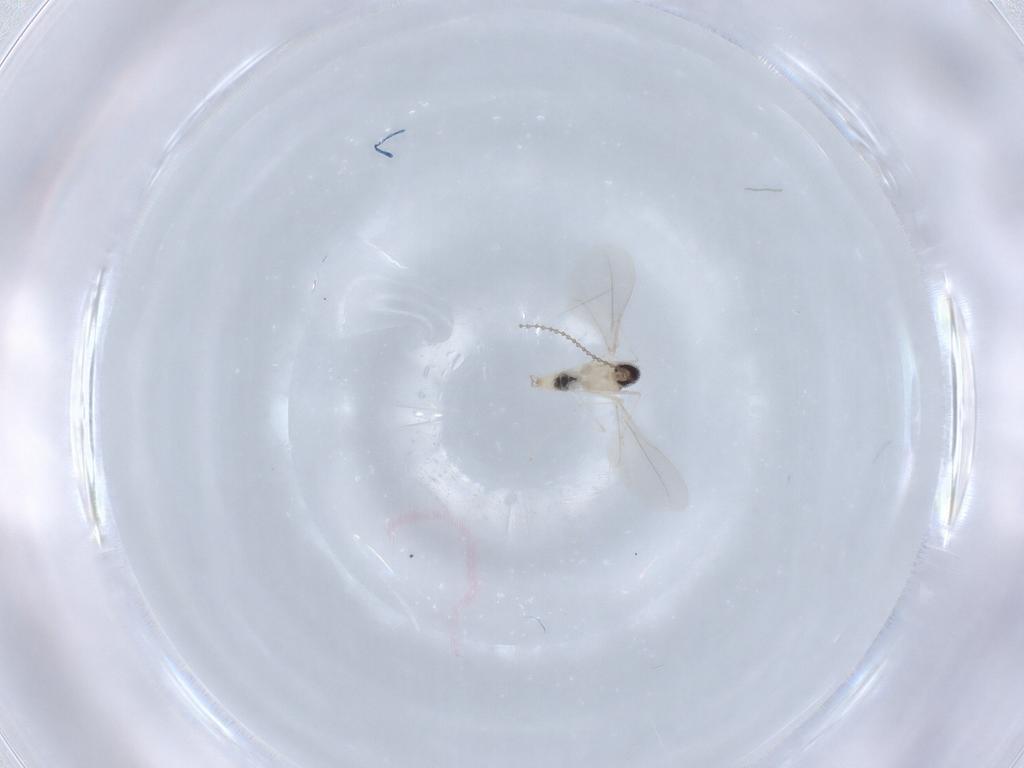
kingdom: Animalia
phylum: Arthropoda
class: Insecta
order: Diptera
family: Cecidomyiidae
